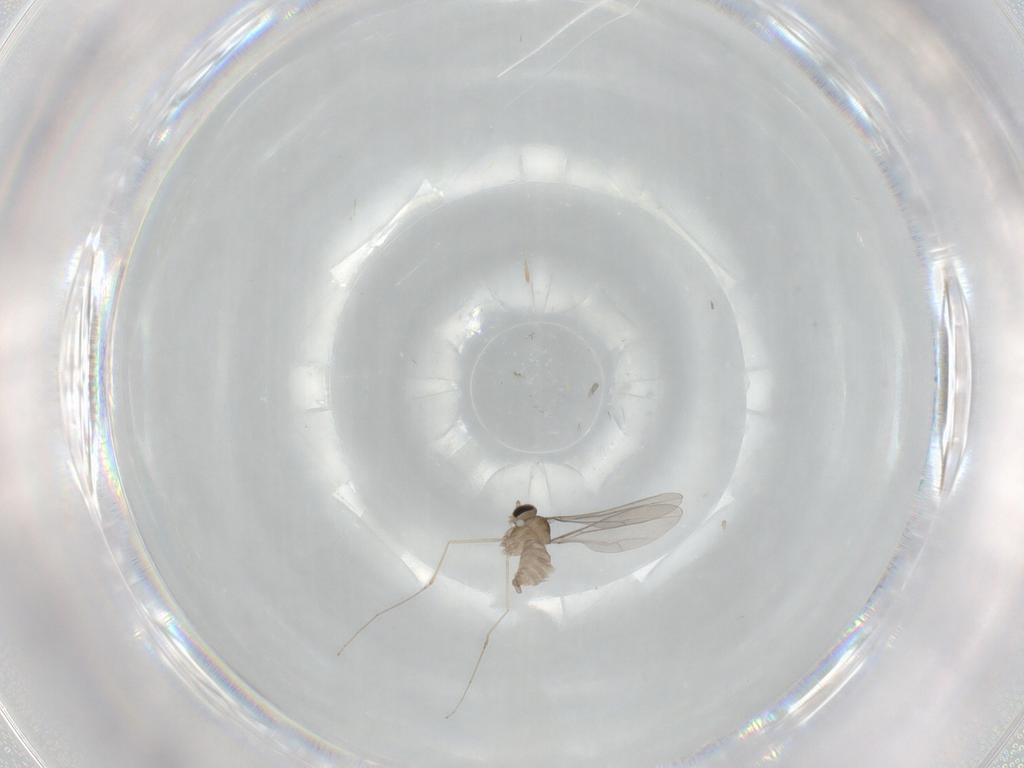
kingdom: Animalia
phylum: Arthropoda
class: Insecta
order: Diptera
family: Cecidomyiidae
